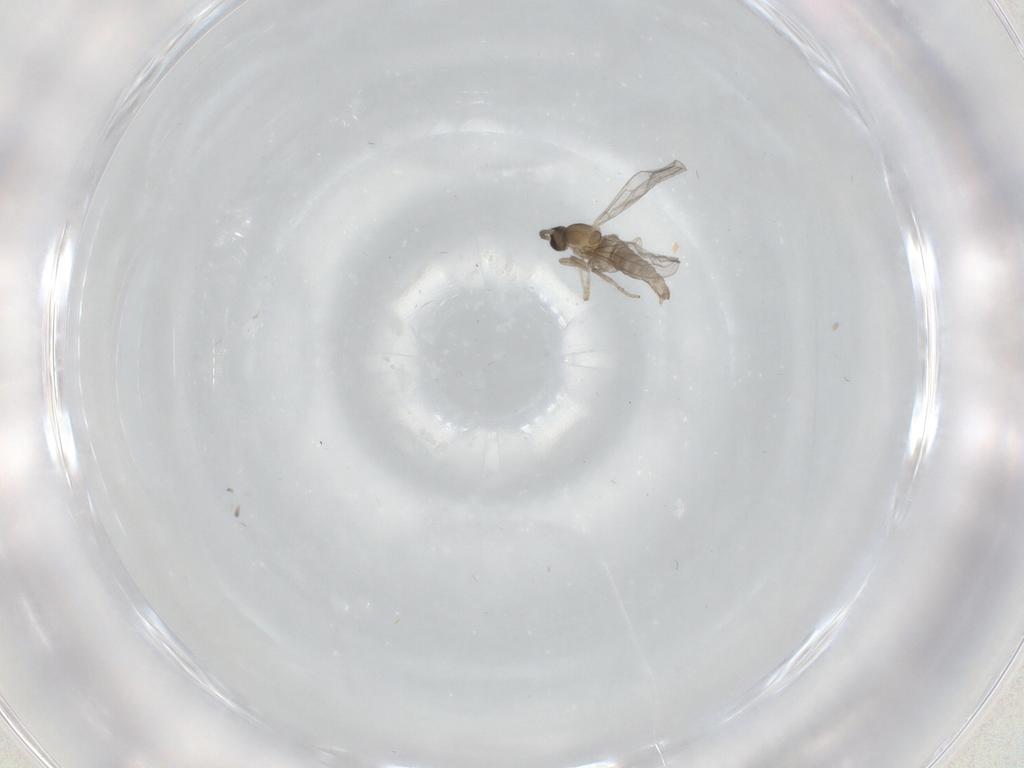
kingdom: Animalia
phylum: Arthropoda
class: Insecta
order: Diptera
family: Cecidomyiidae
